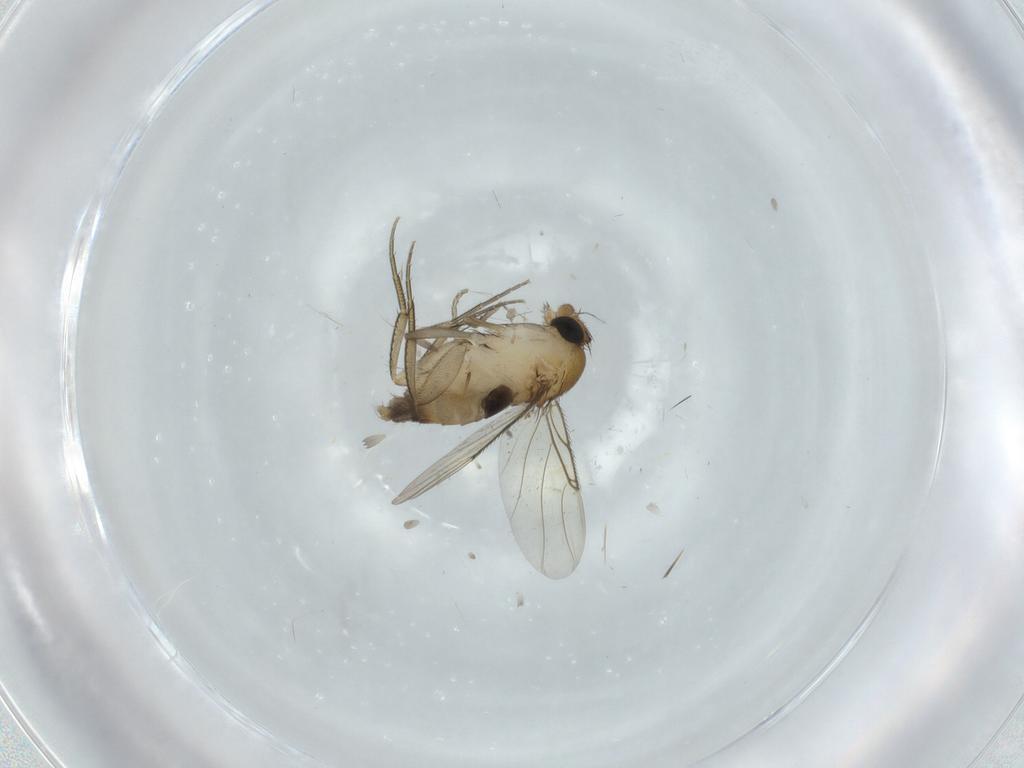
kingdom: Animalia
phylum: Arthropoda
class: Insecta
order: Diptera
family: Phoridae
